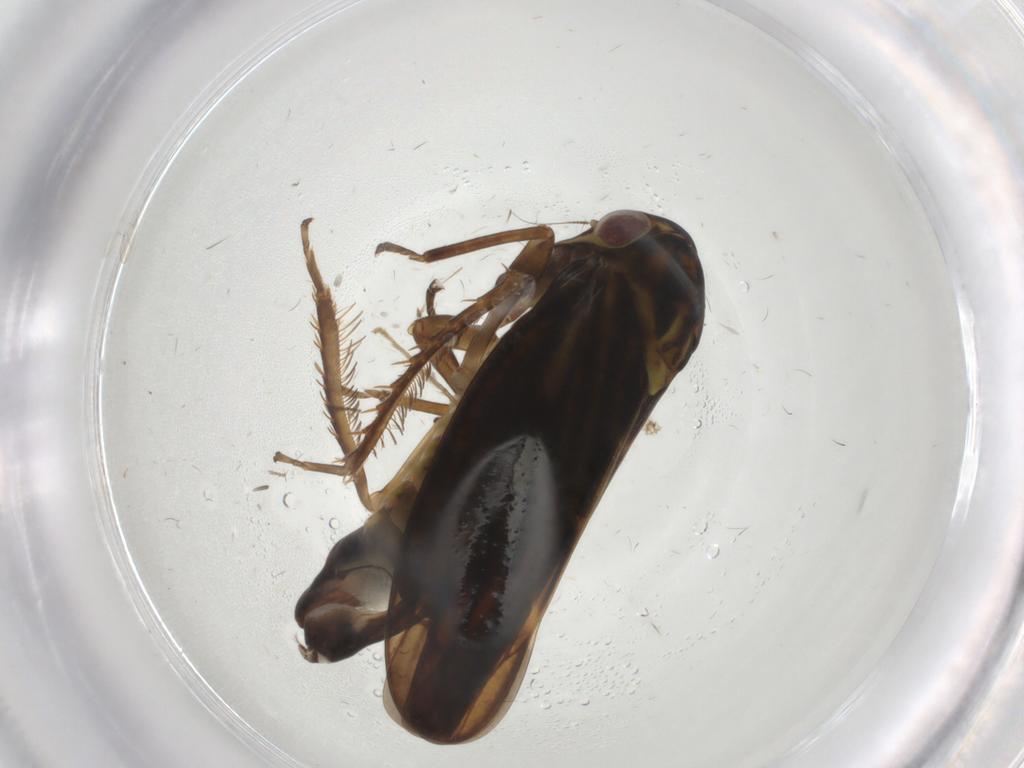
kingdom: Animalia
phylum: Arthropoda
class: Insecta
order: Hemiptera
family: Cicadellidae
